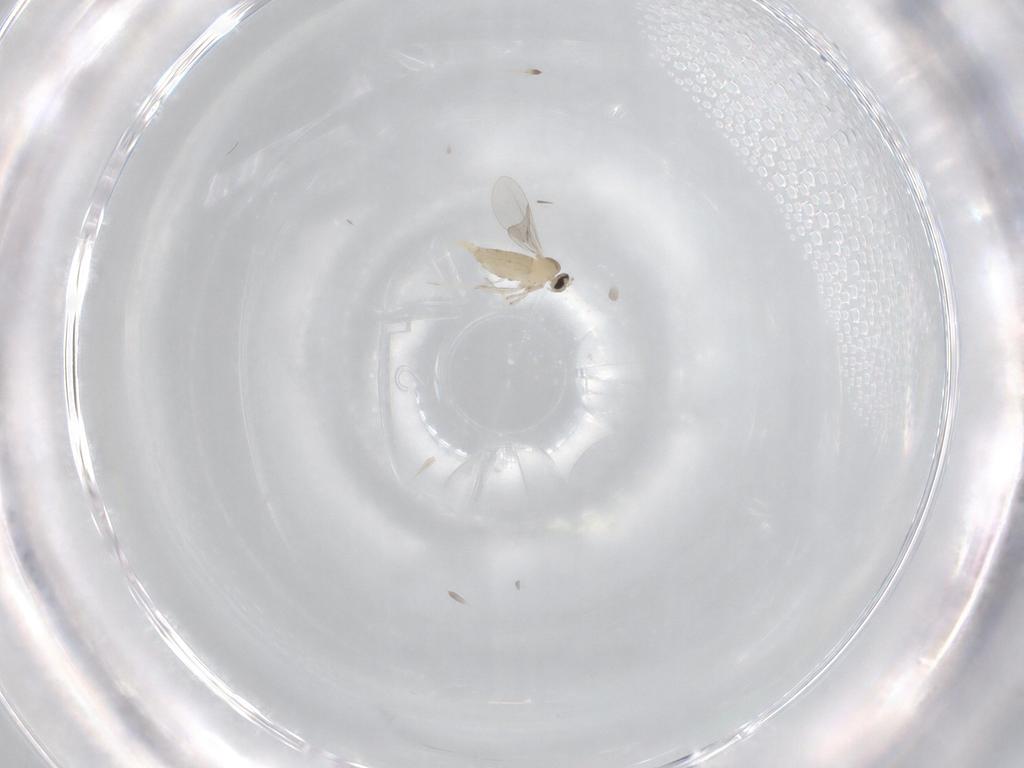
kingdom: Animalia
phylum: Arthropoda
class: Insecta
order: Diptera
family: Cecidomyiidae
